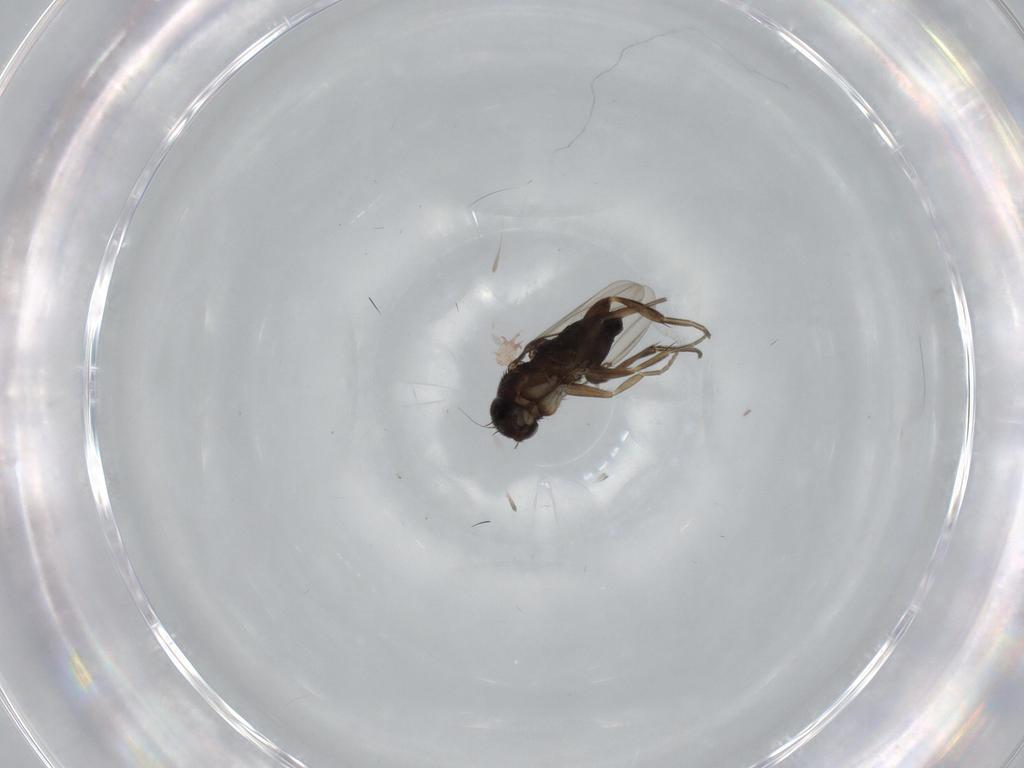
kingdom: Animalia
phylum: Arthropoda
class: Insecta
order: Diptera
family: Phoridae
